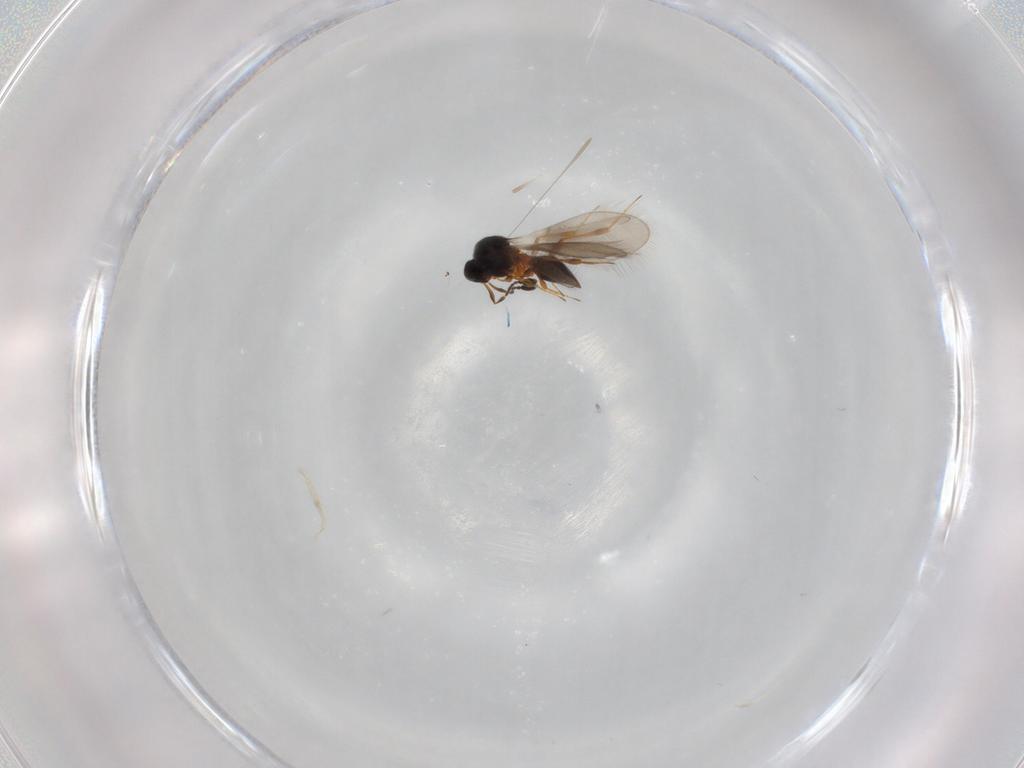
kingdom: Animalia
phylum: Arthropoda
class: Insecta
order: Hymenoptera
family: Platygastridae
